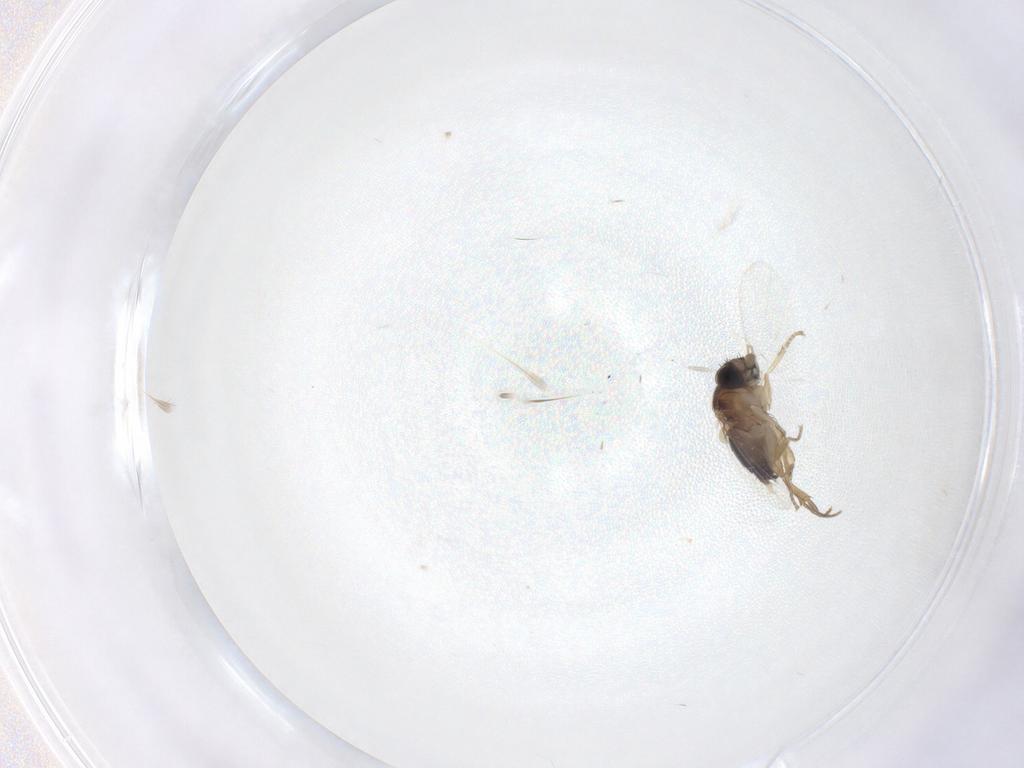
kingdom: Animalia
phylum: Arthropoda
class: Insecta
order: Diptera
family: Phoridae
